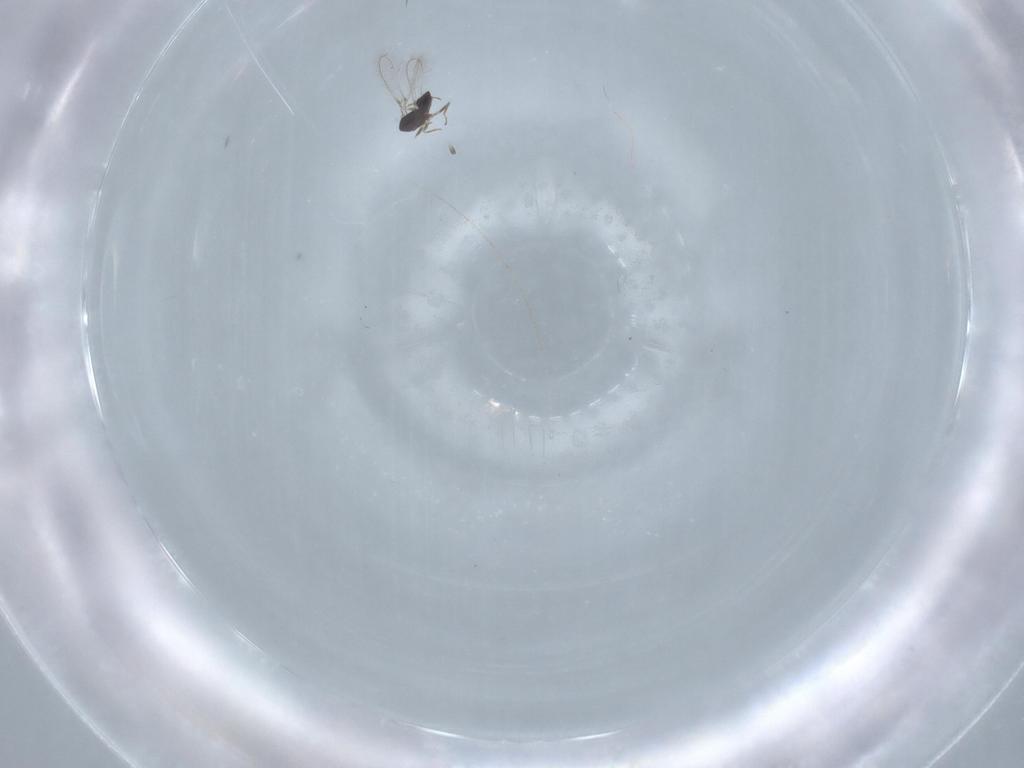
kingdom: Animalia
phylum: Arthropoda
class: Insecta
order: Hymenoptera
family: Mymaridae
